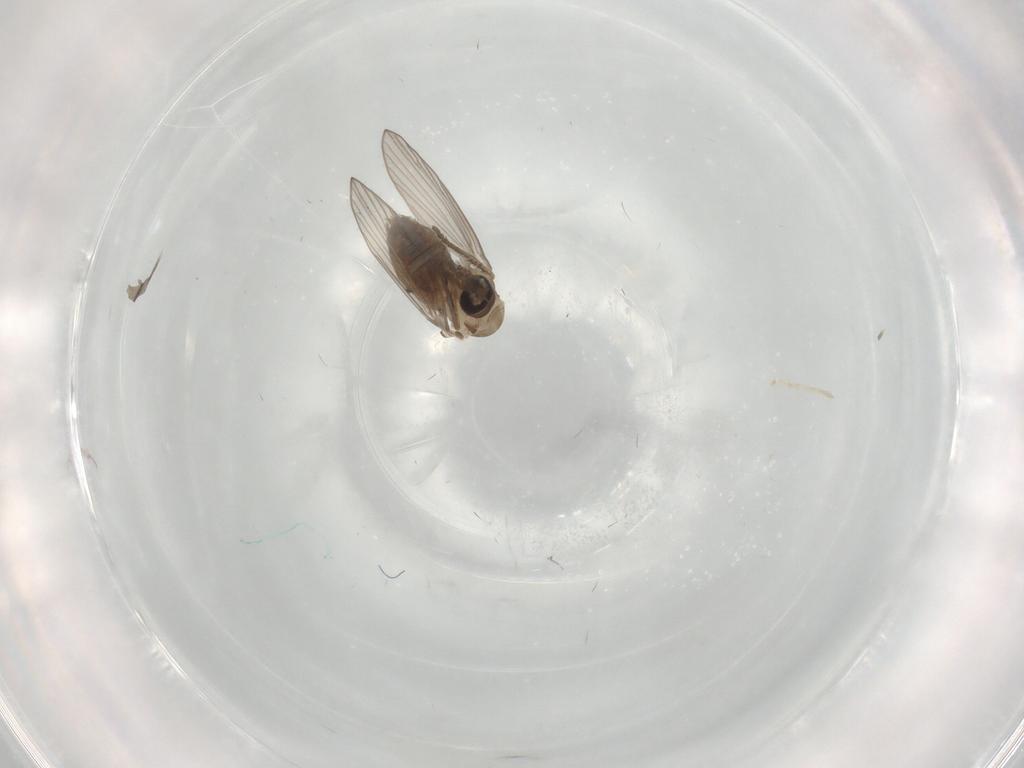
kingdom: Animalia
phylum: Arthropoda
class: Insecta
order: Diptera
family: Psychodidae
